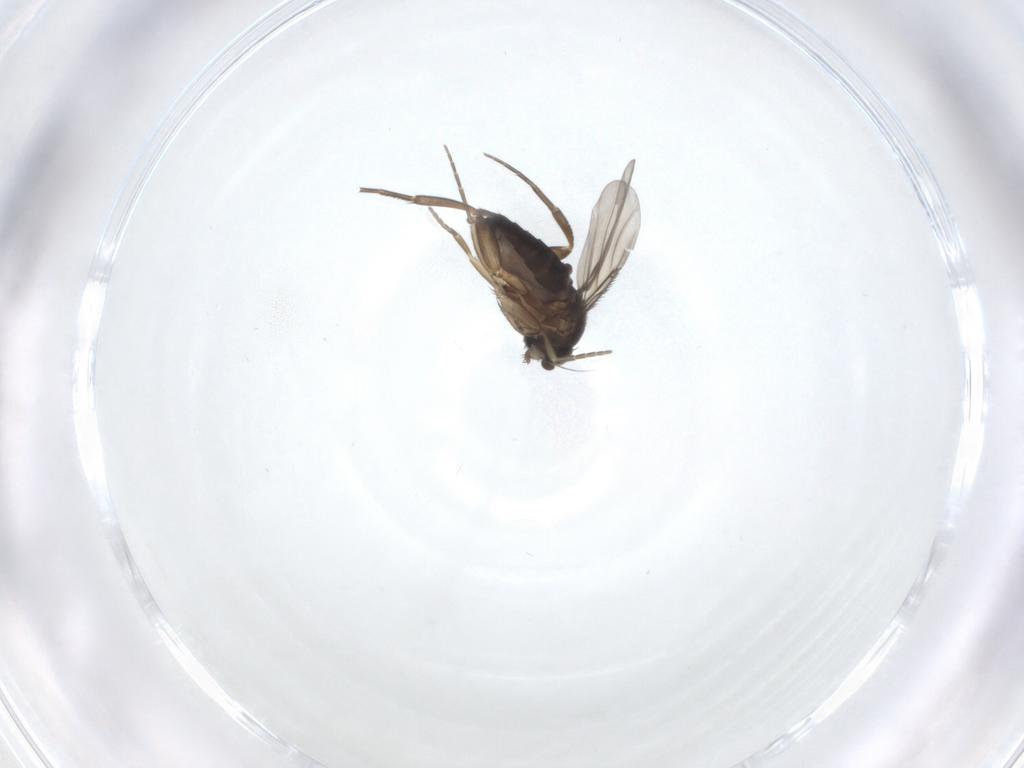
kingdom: Animalia
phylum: Arthropoda
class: Insecta
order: Diptera
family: Phoridae
